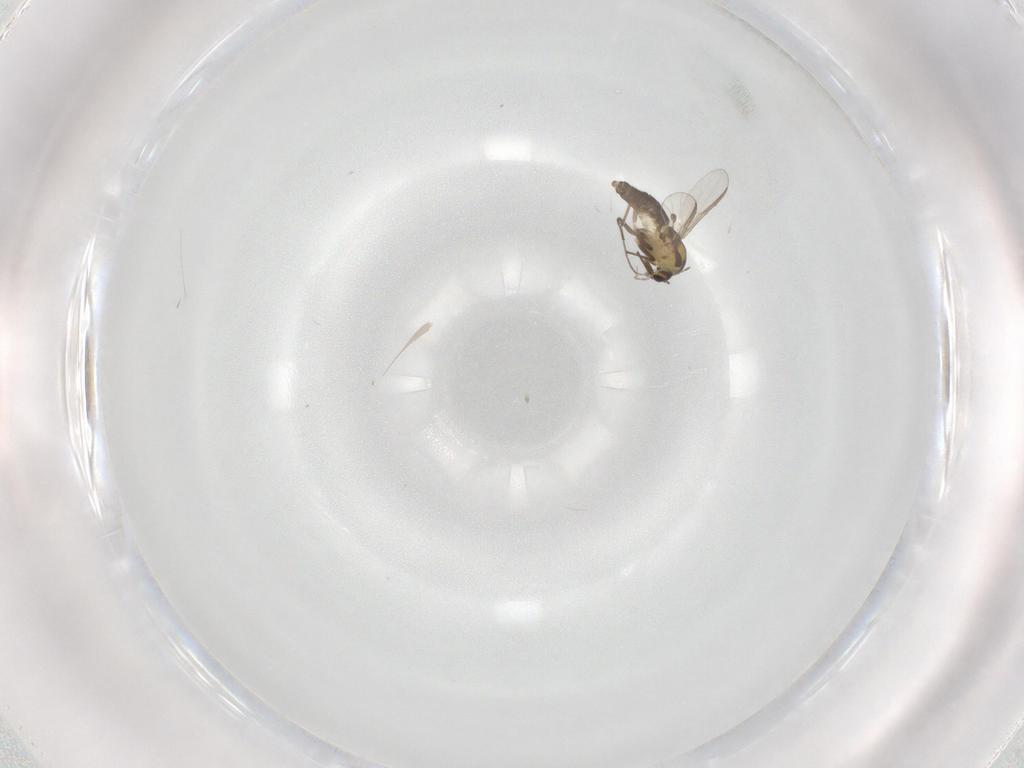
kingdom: Animalia
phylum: Arthropoda
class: Insecta
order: Diptera
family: Chironomidae
